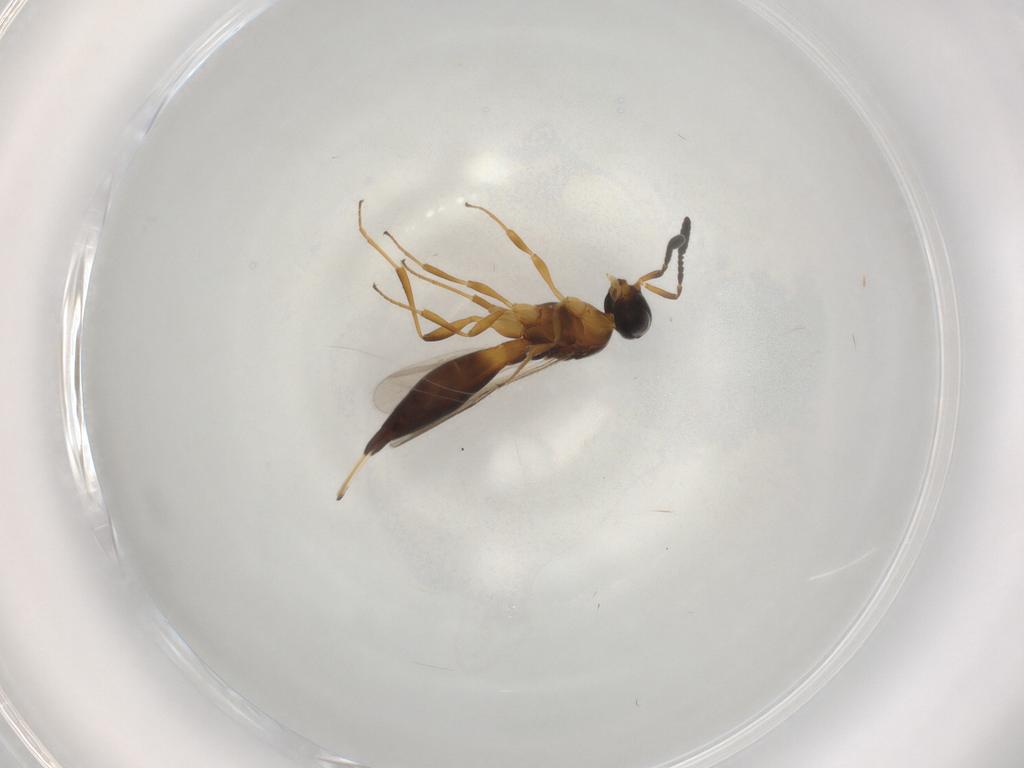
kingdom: Animalia
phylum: Arthropoda
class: Insecta
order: Hymenoptera
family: Scelionidae
